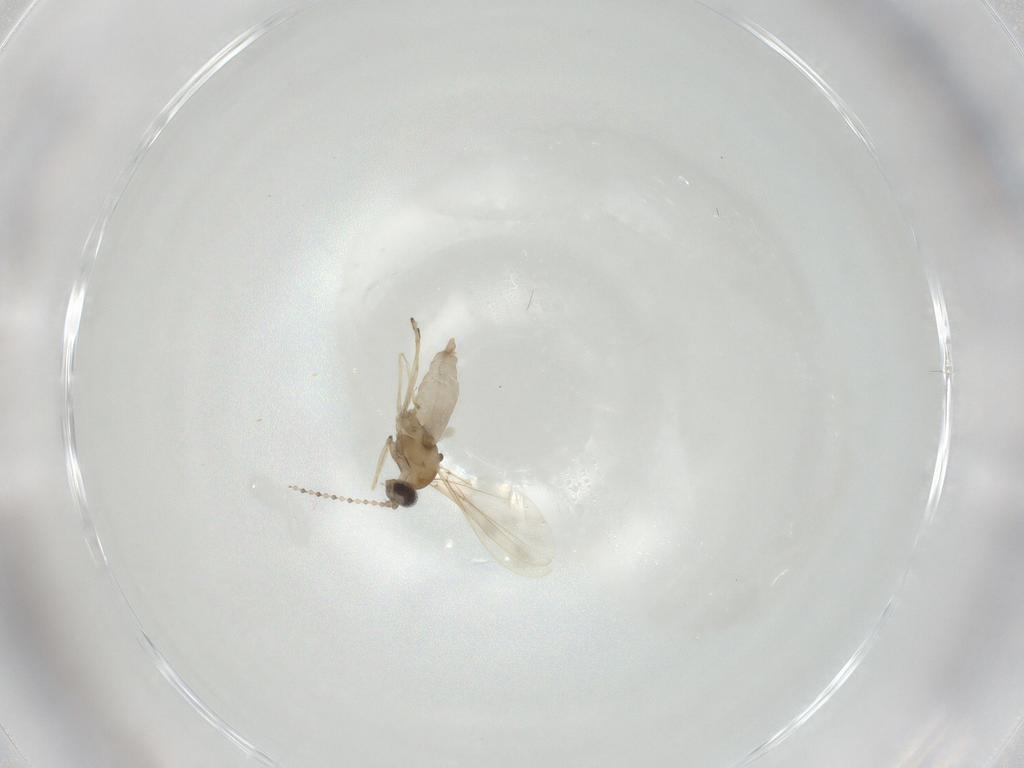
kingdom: Animalia
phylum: Arthropoda
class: Insecta
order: Diptera
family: Cecidomyiidae
